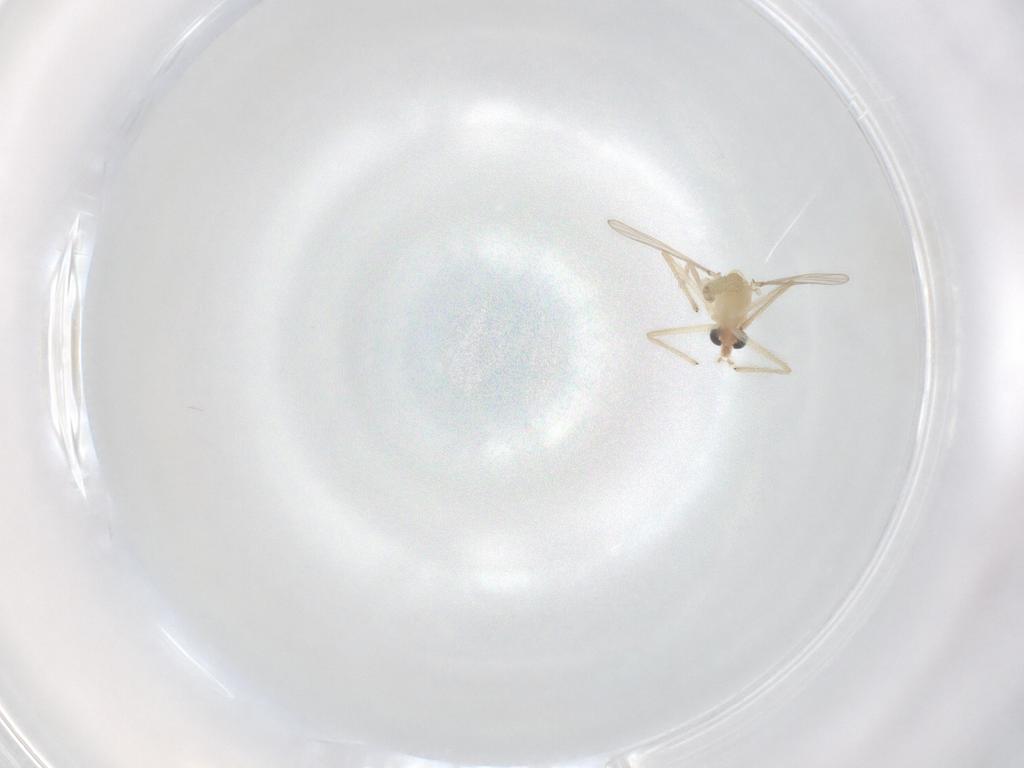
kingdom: Animalia
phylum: Arthropoda
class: Insecta
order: Diptera
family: Chironomidae
